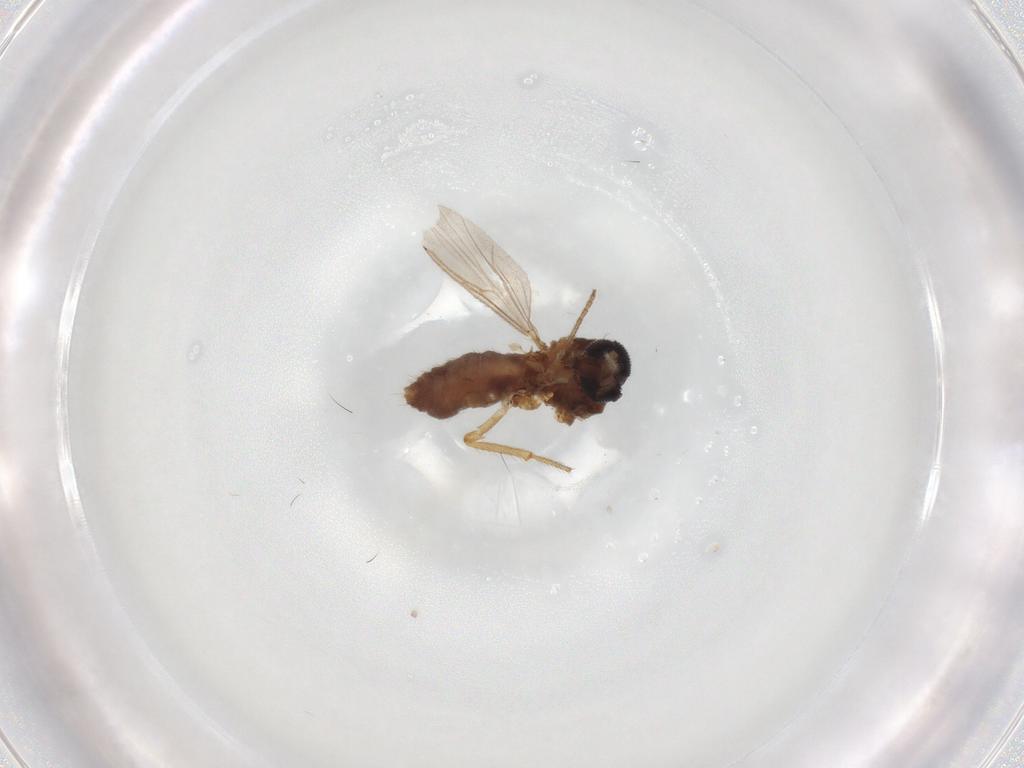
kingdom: Animalia
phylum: Arthropoda
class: Insecta
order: Diptera
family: Psychodidae
